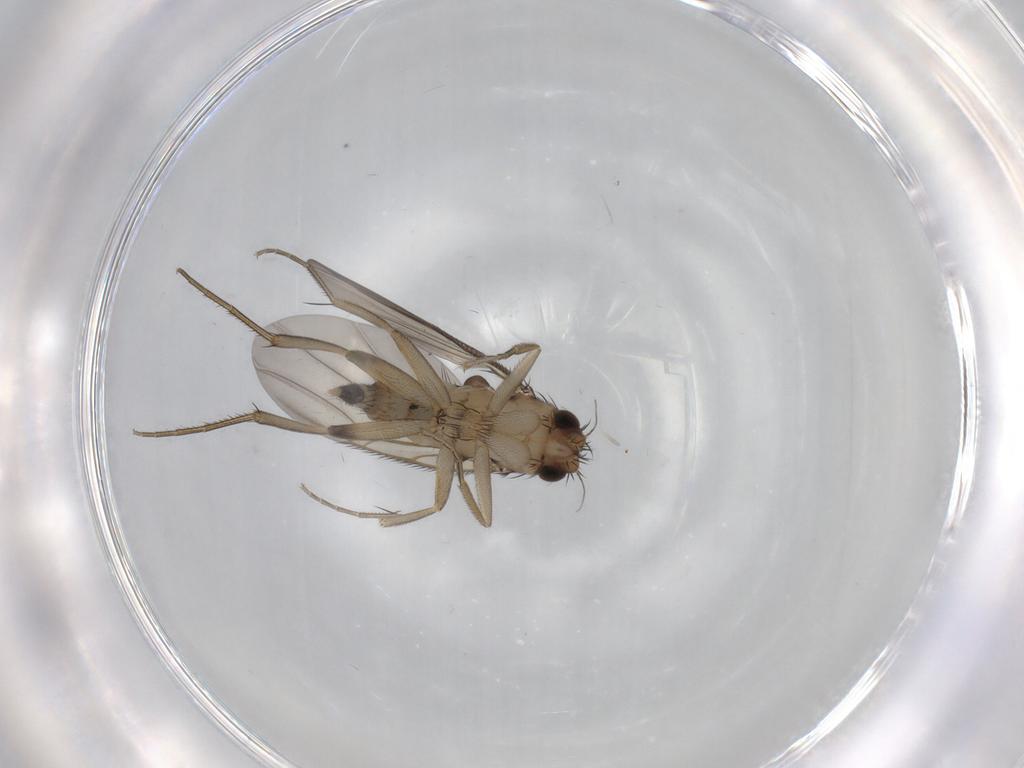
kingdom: Animalia
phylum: Arthropoda
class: Insecta
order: Diptera
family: Phoridae
